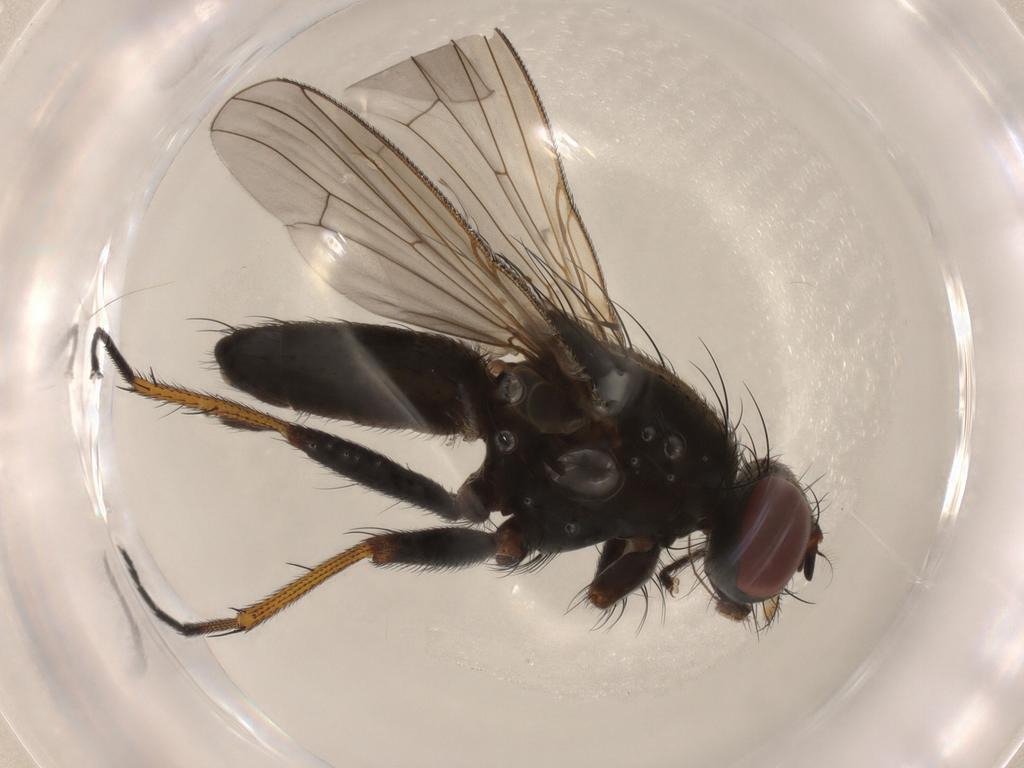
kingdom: Animalia
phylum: Arthropoda
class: Insecta
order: Diptera
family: Muscidae
